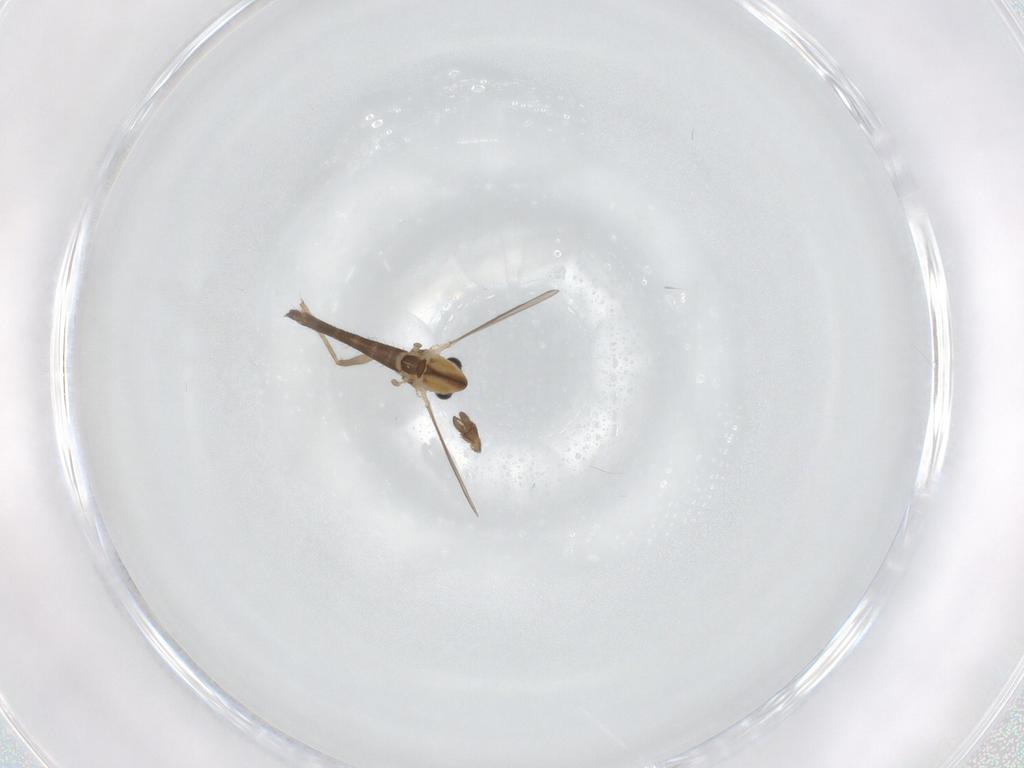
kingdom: Animalia
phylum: Arthropoda
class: Insecta
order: Diptera
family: Chironomidae
